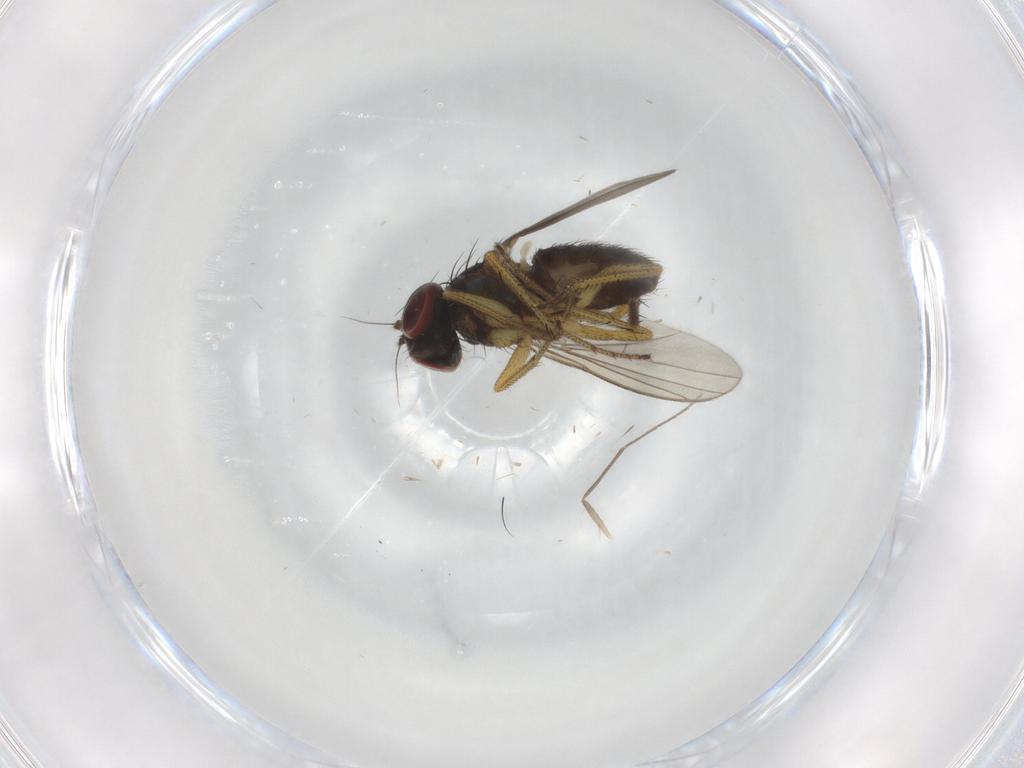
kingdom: Animalia
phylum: Arthropoda
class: Insecta
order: Diptera
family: Dolichopodidae
